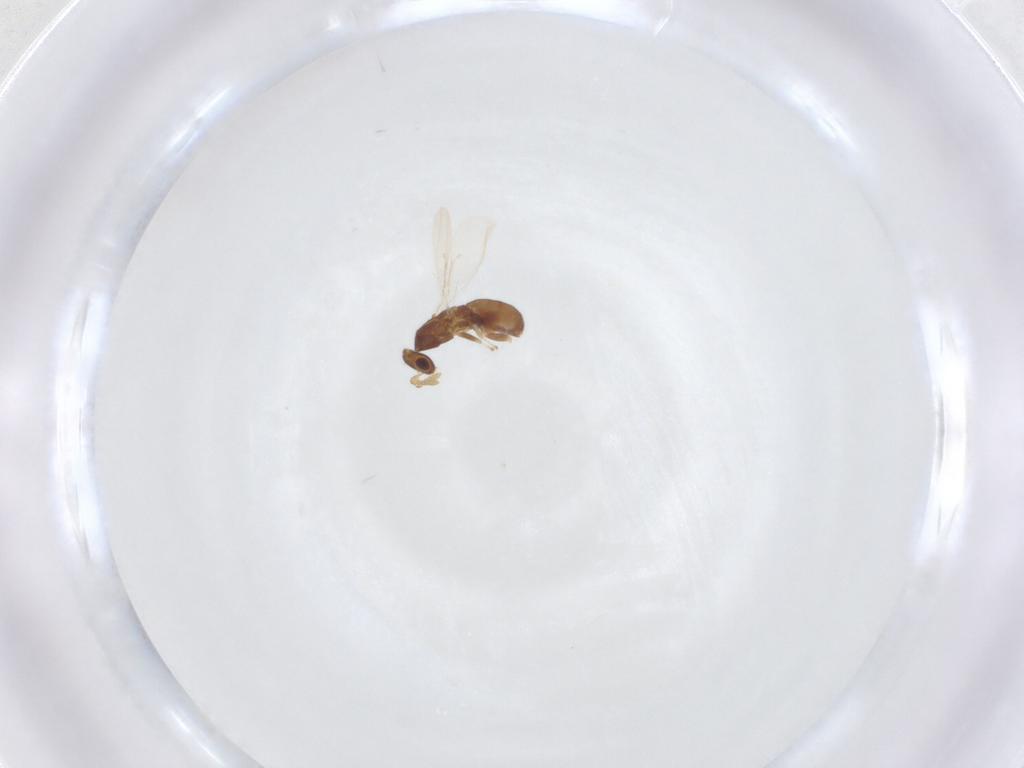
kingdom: Animalia
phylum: Arthropoda
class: Insecta
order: Hymenoptera
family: Eulophidae
